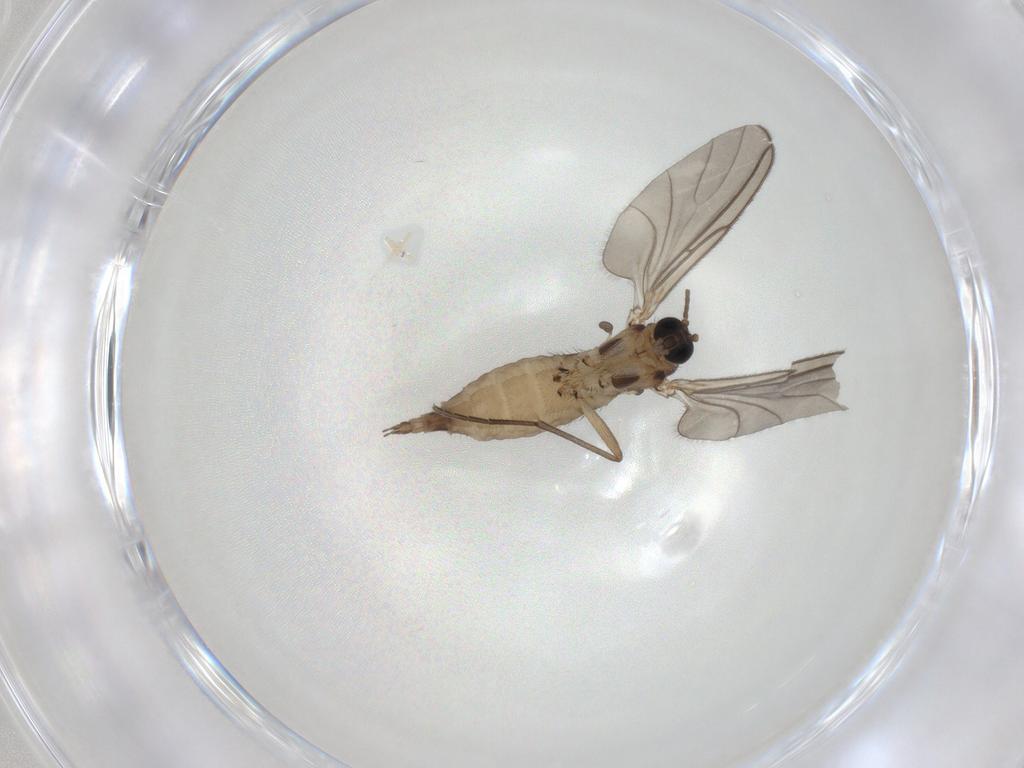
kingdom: Animalia
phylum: Arthropoda
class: Insecta
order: Diptera
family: Sciaridae
